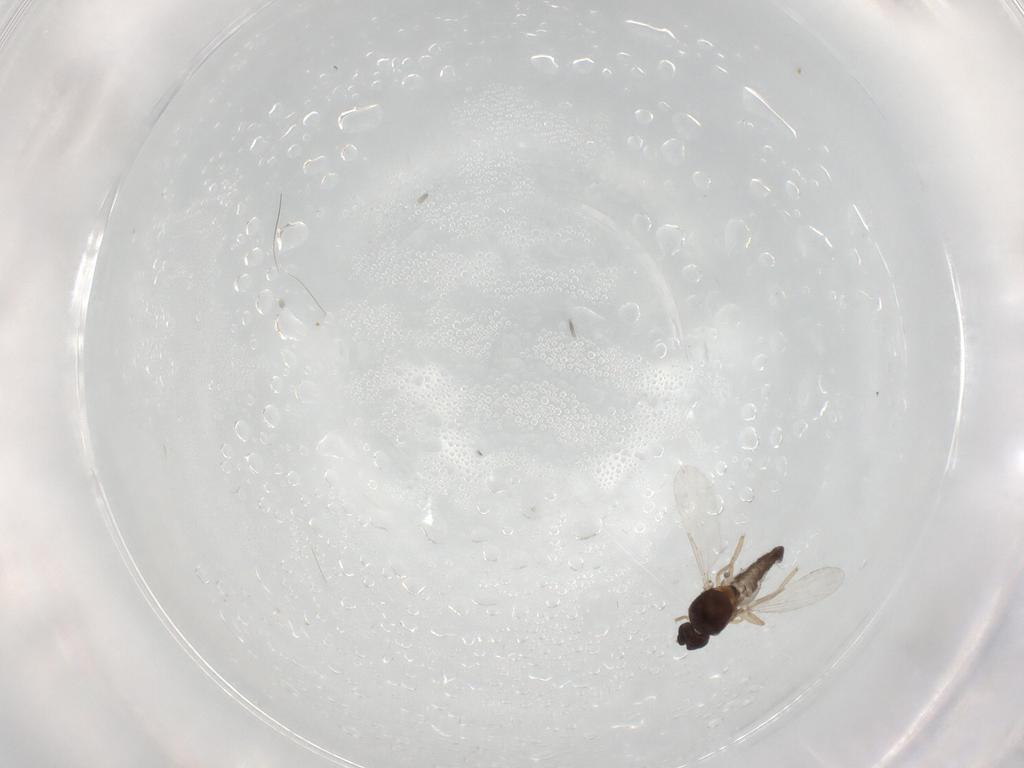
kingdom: Animalia
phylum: Arthropoda
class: Insecta
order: Diptera
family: Ceratopogonidae
